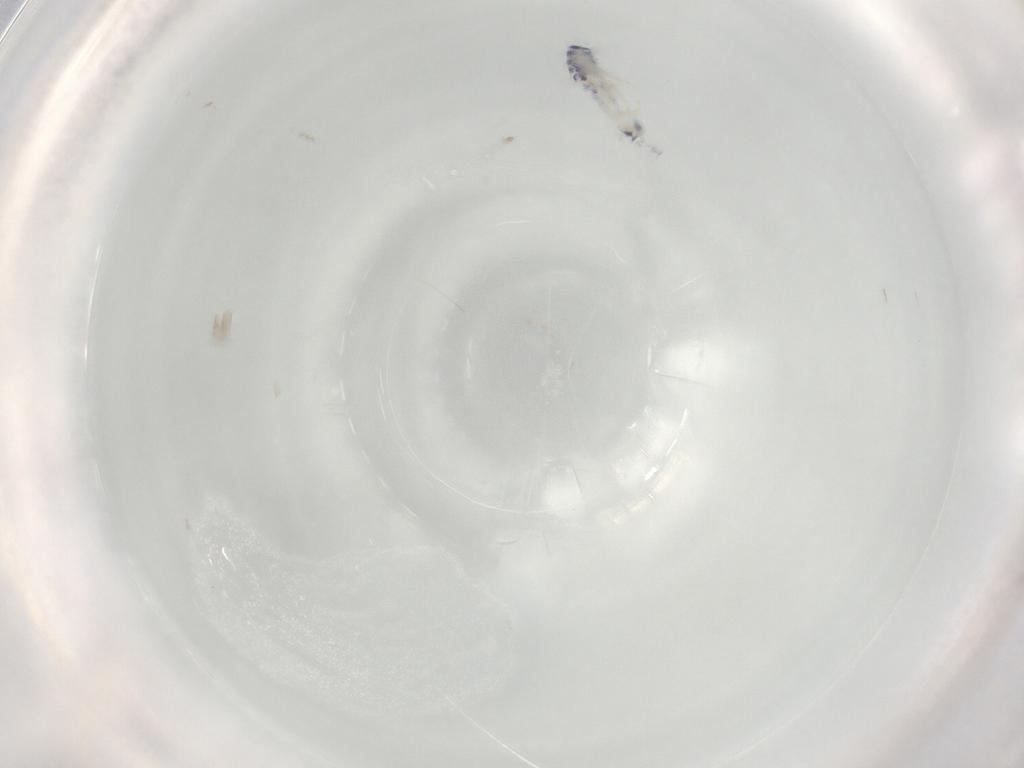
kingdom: Animalia
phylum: Arthropoda
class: Collembola
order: Entomobryomorpha
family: Entomobryidae
